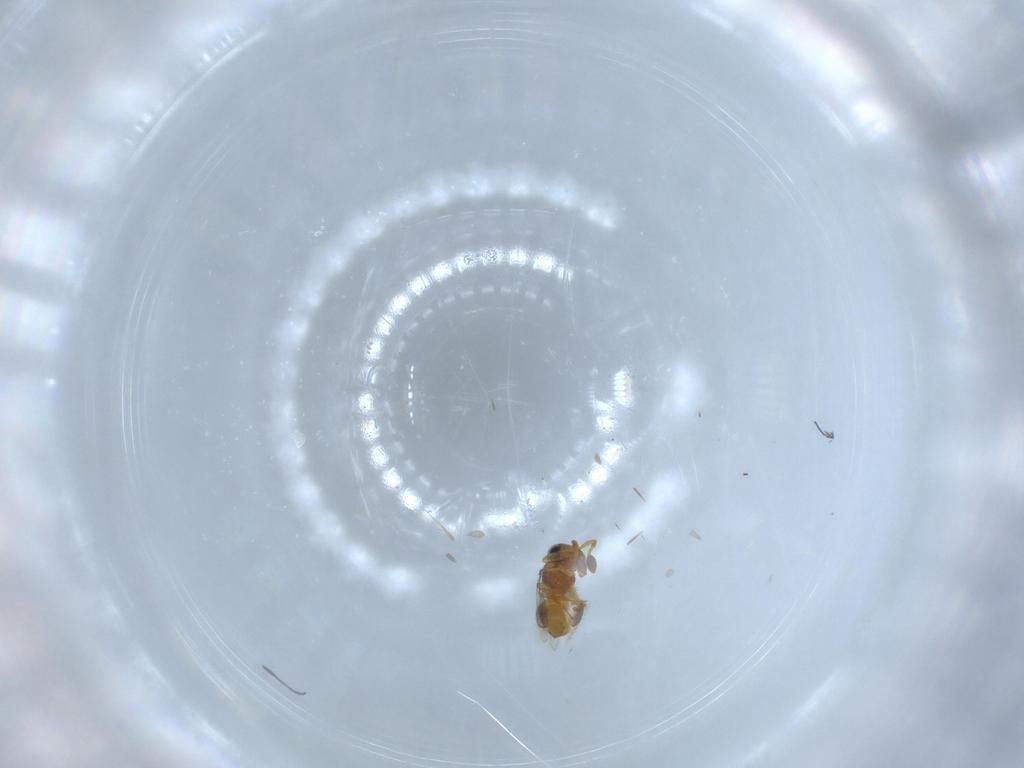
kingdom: Animalia
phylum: Arthropoda
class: Insecta
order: Hymenoptera
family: Scelionidae
